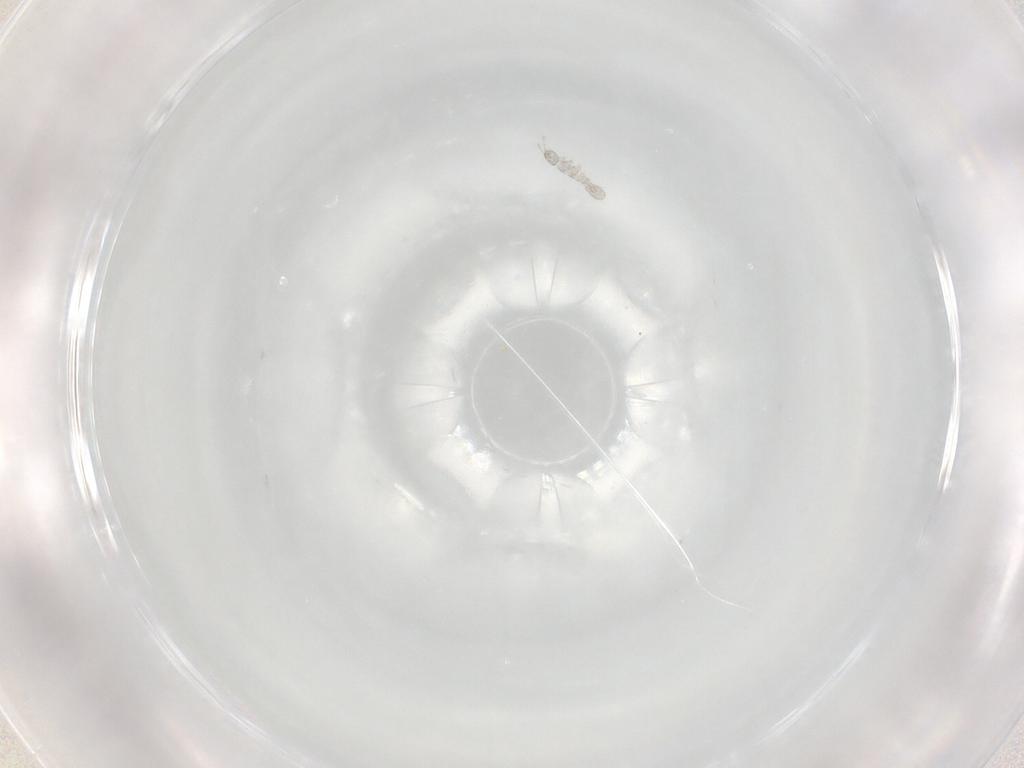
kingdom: Animalia
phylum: Arthropoda
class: Collembola
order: Entomobryomorpha
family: Isotomidae
